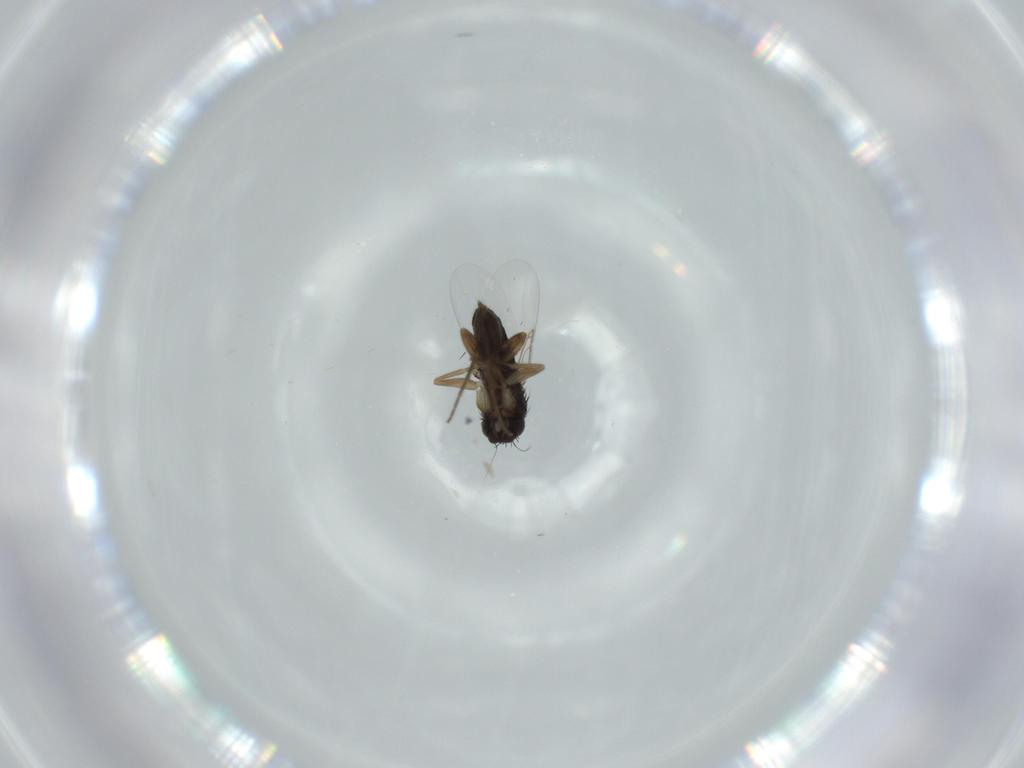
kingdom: Animalia
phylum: Arthropoda
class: Insecta
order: Diptera
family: Phoridae
